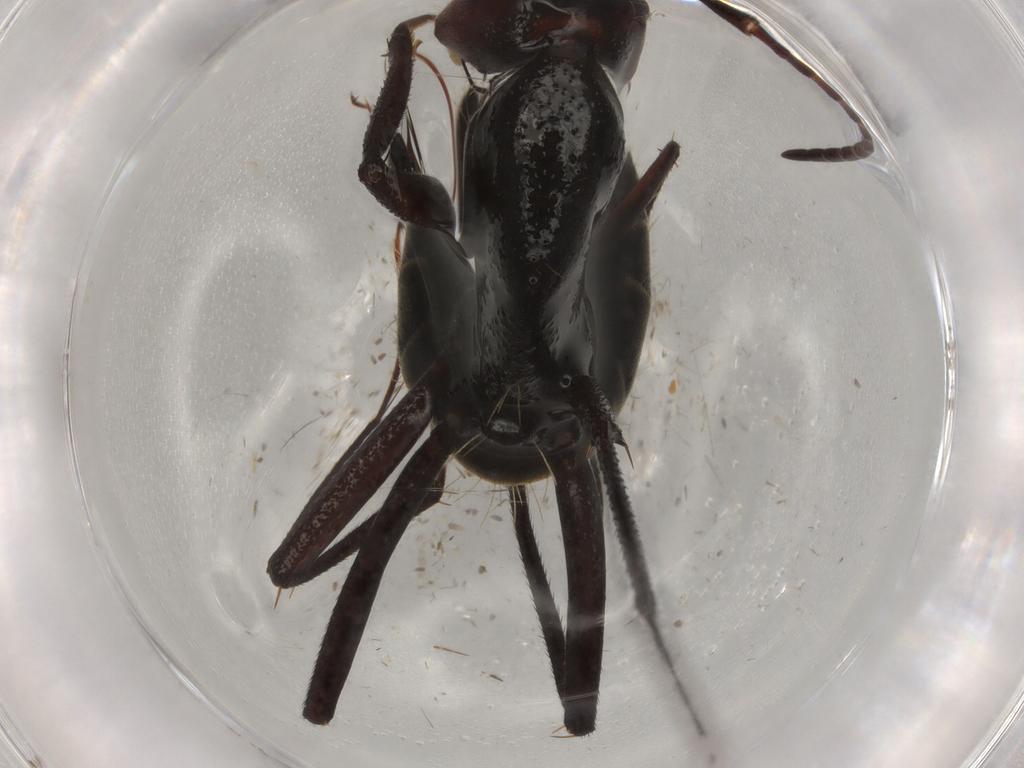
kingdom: Animalia
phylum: Arthropoda
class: Insecta
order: Hymenoptera
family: Formicidae
